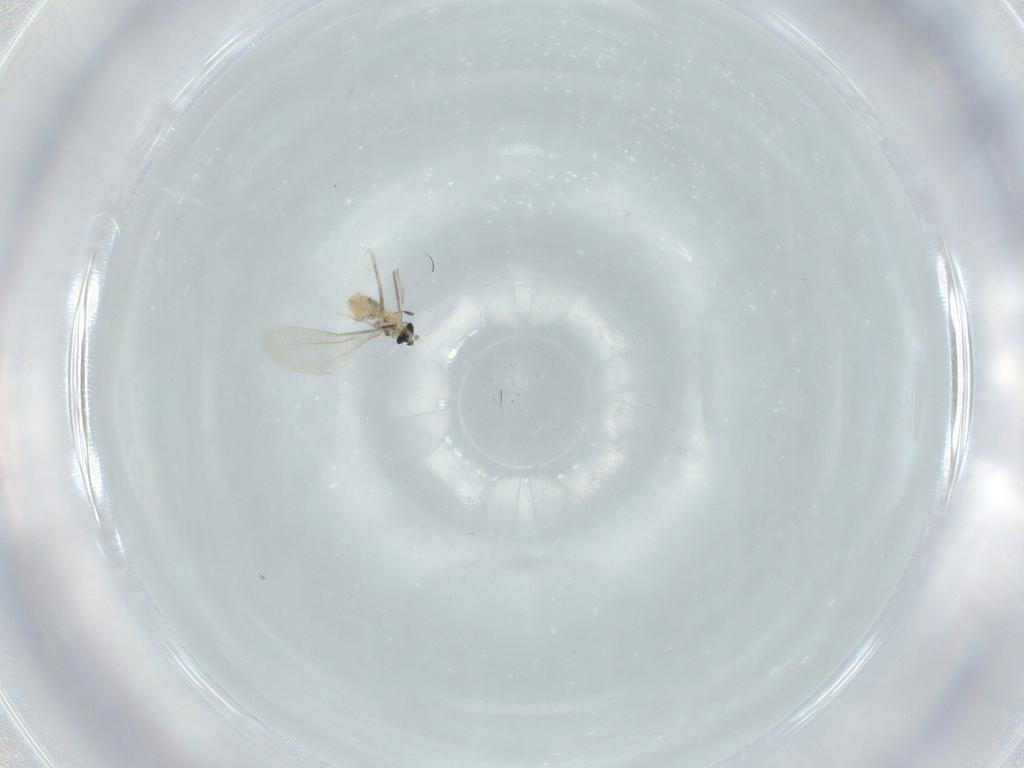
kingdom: Animalia
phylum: Arthropoda
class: Insecta
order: Diptera
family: Cecidomyiidae
